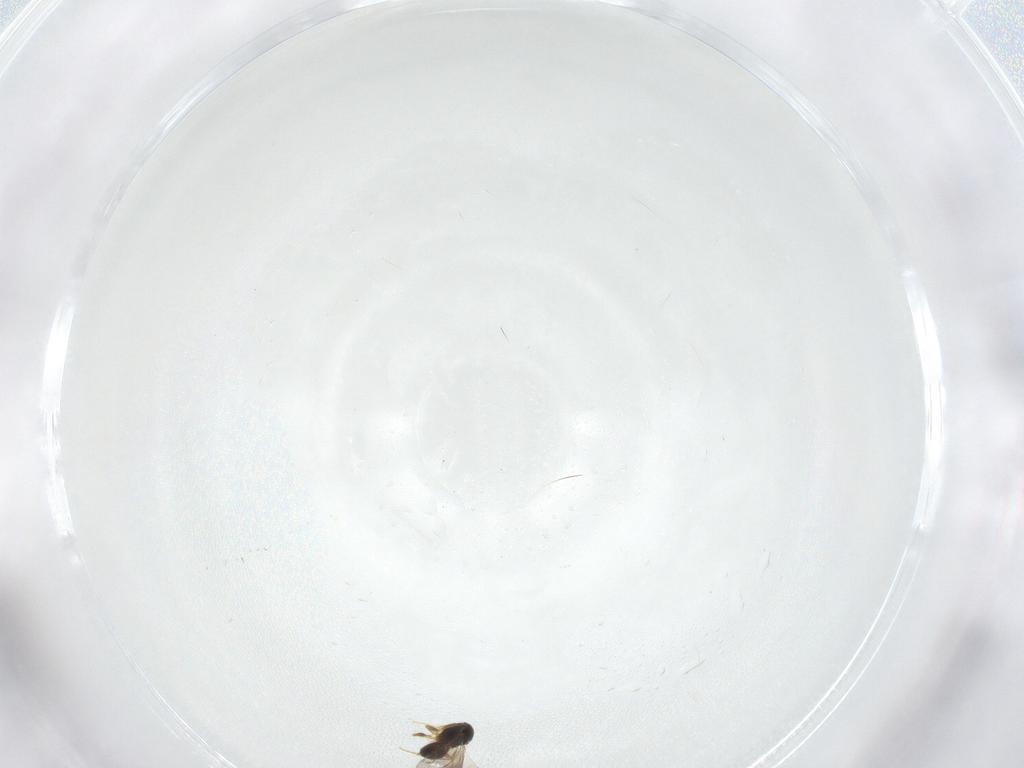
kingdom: Animalia
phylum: Arthropoda
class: Insecta
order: Hymenoptera
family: Ceraphronidae
